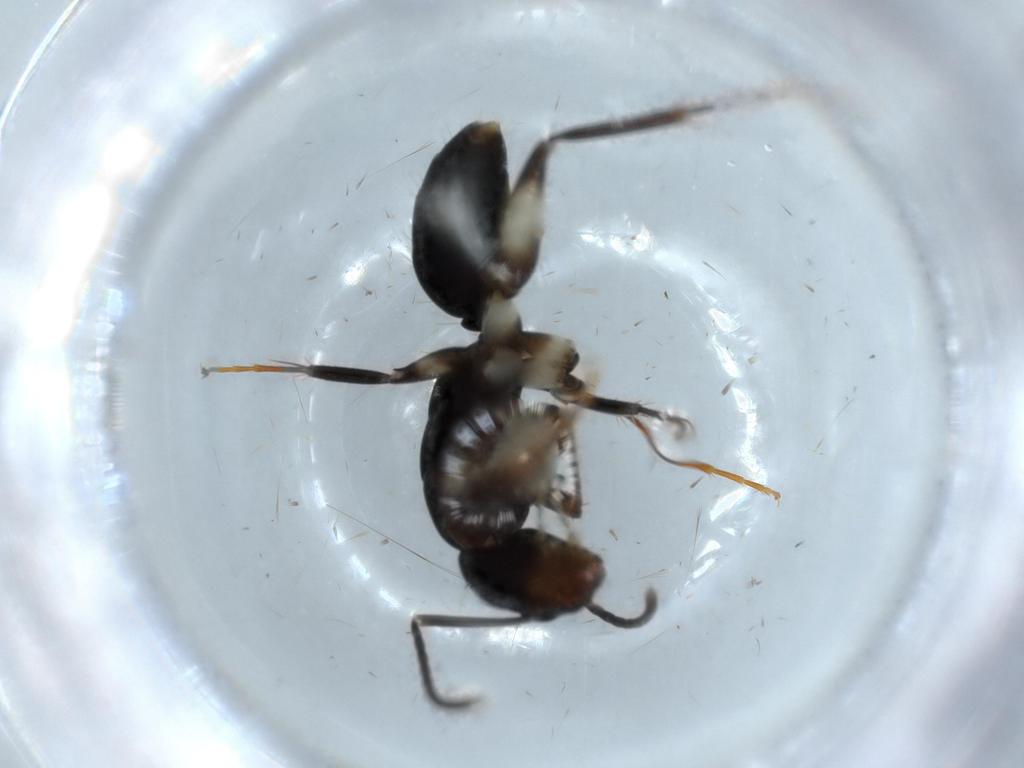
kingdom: Animalia
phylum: Arthropoda
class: Insecta
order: Hymenoptera
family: Formicidae
